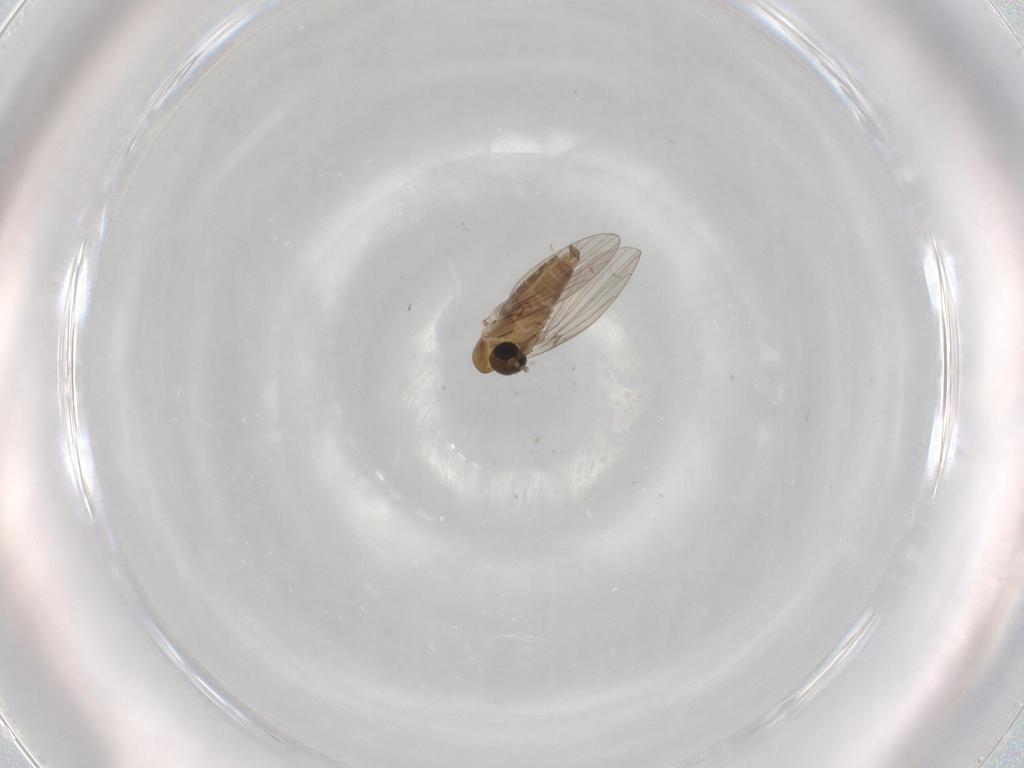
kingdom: Animalia
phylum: Arthropoda
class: Insecta
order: Diptera
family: Psychodidae
